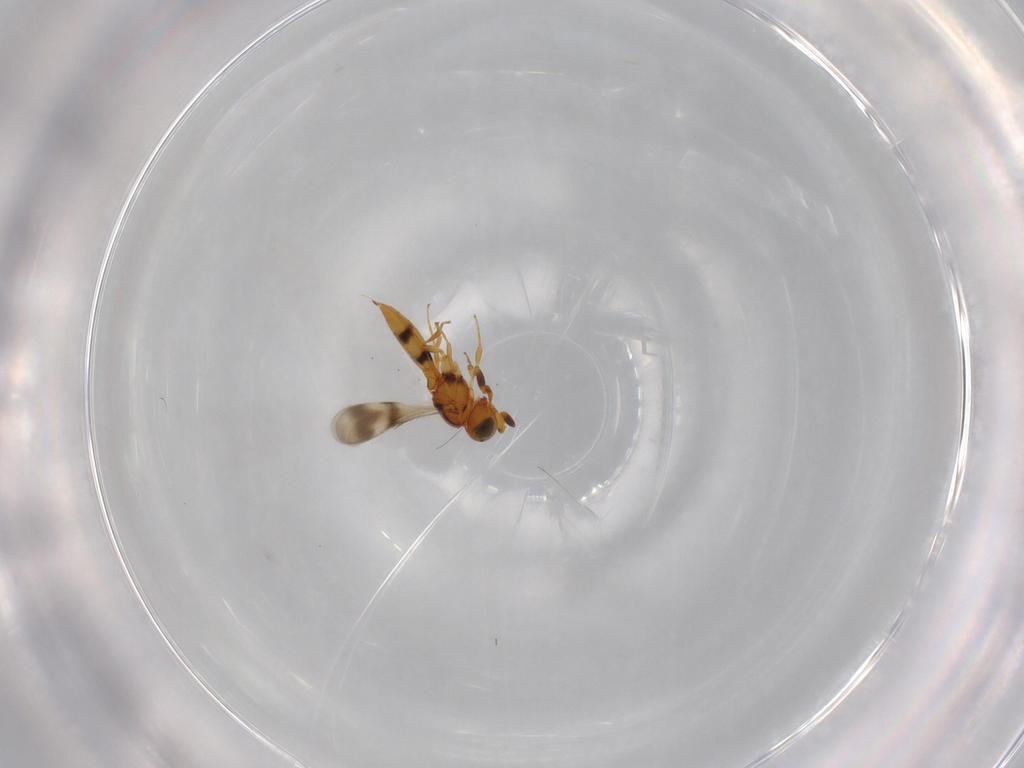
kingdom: Animalia
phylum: Arthropoda
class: Insecta
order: Hymenoptera
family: Scelionidae
